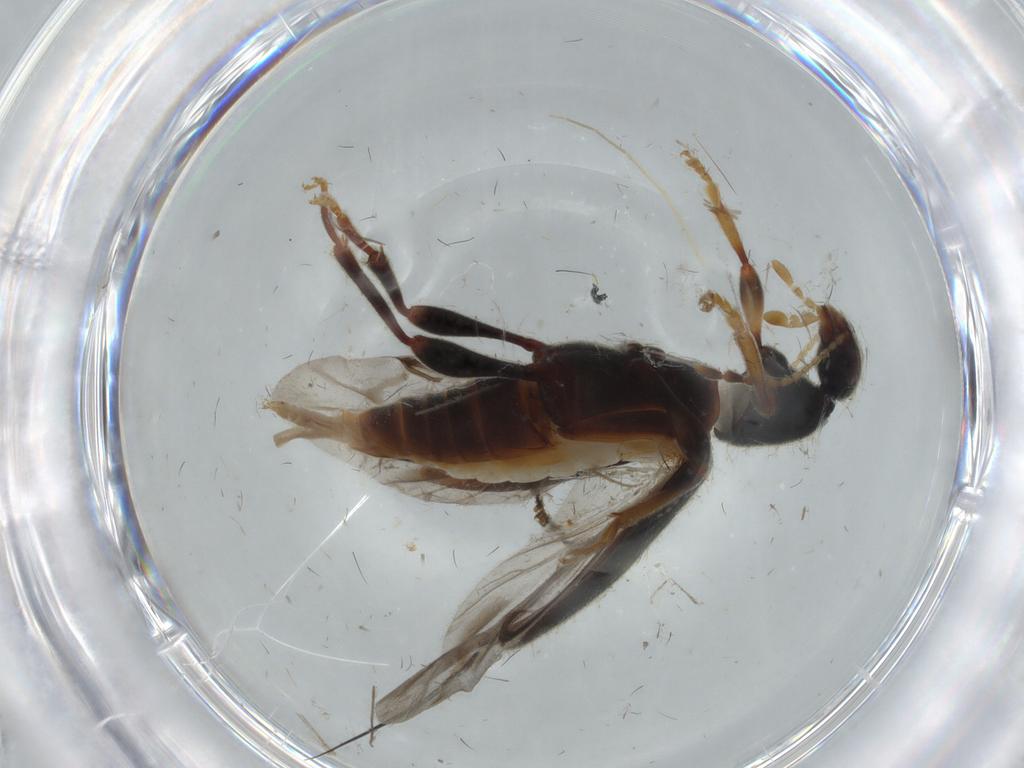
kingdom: Animalia
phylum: Arthropoda
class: Insecta
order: Coleoptera
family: Anthicidae
